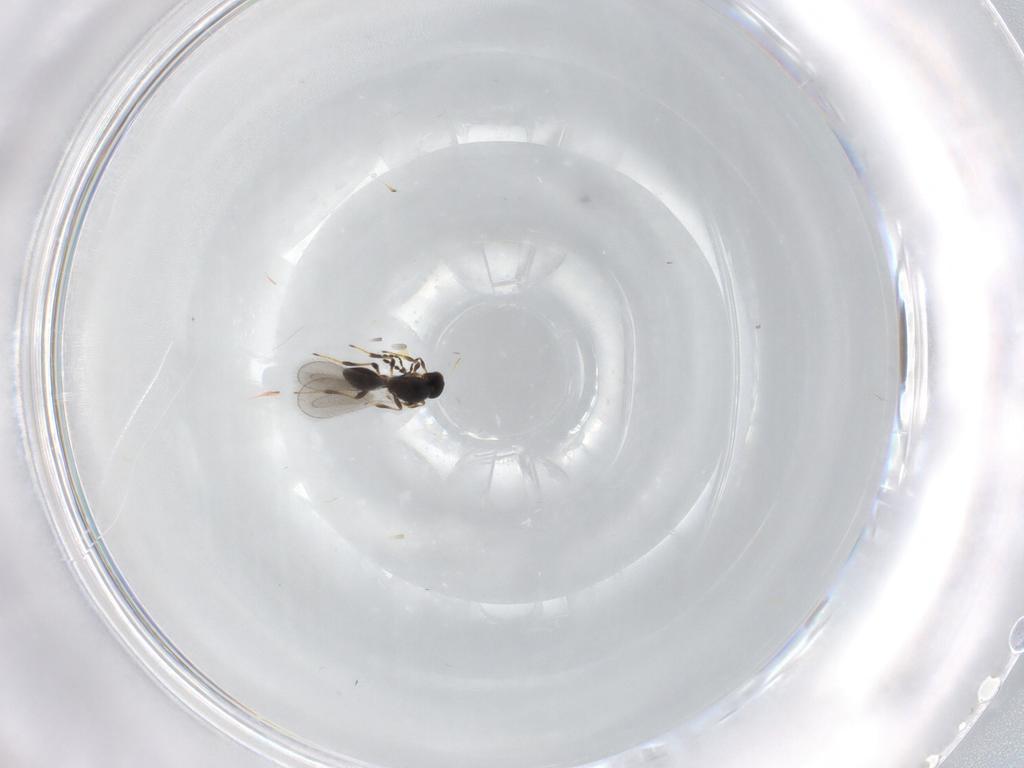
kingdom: Animalia
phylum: Arthropoda
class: Insecta
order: Hymenoptera
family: Platygastridae
